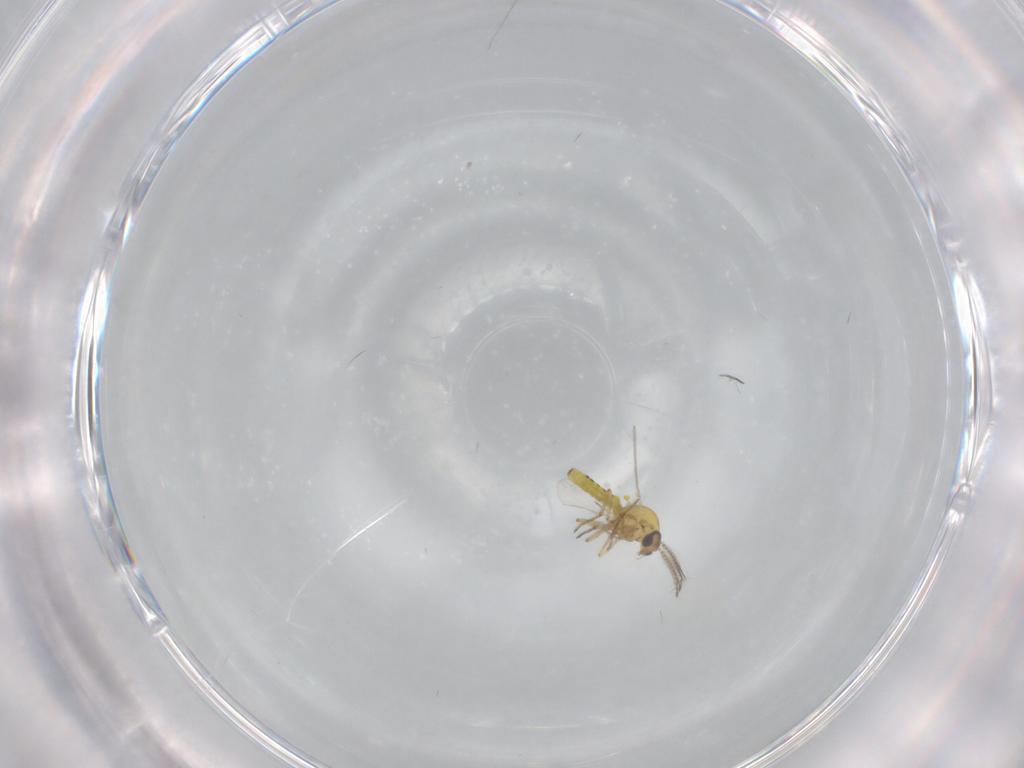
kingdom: Animalia
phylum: Arthropoda
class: Insecta
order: Diptera
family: Ceratopogonidae
